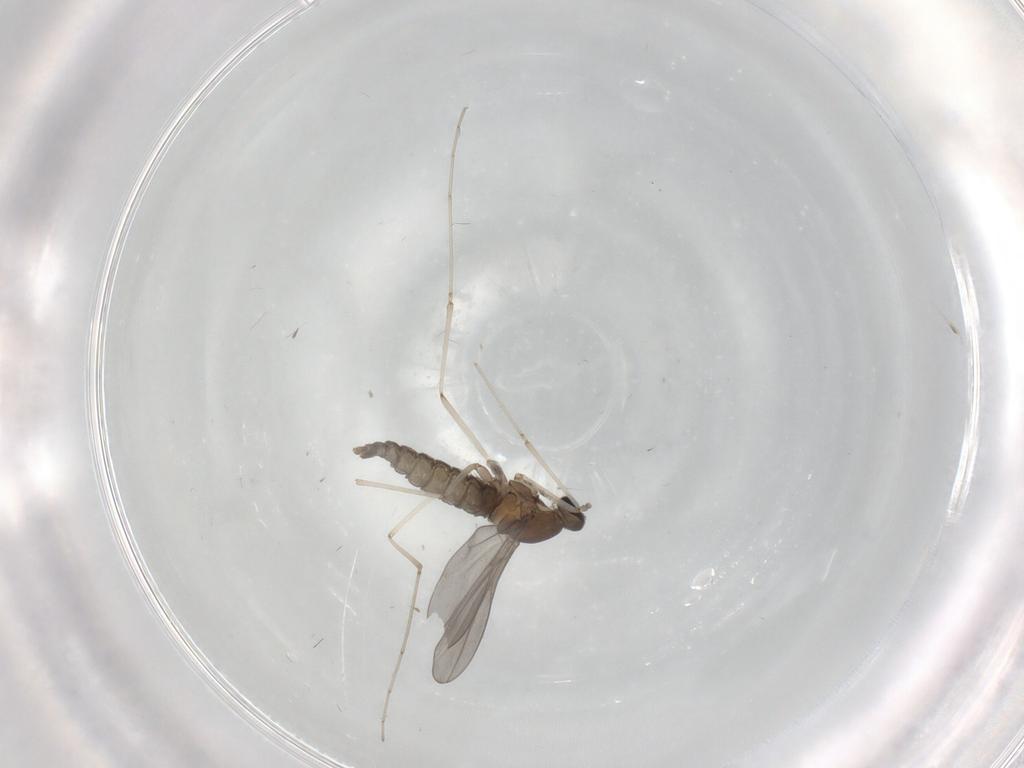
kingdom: Animalia
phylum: Arthropoda
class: Insecta
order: Diptera
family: Cecidomyiidae
